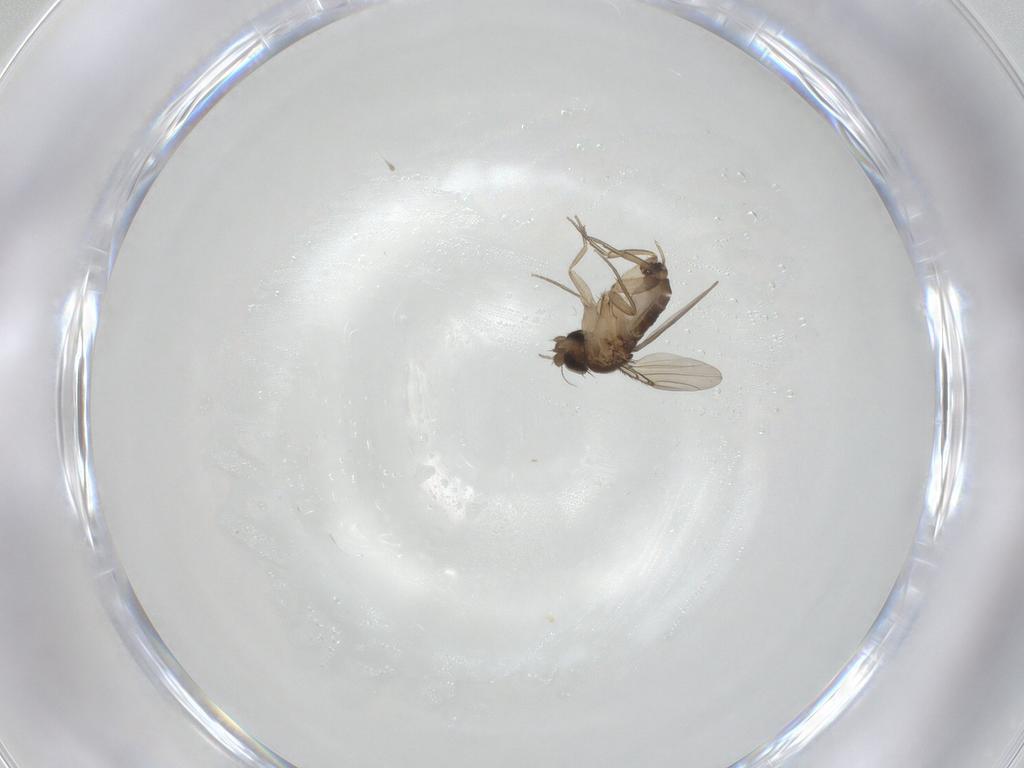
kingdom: Animalia
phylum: Arthropoda
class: Insecta
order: Diptera
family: Phoridae
